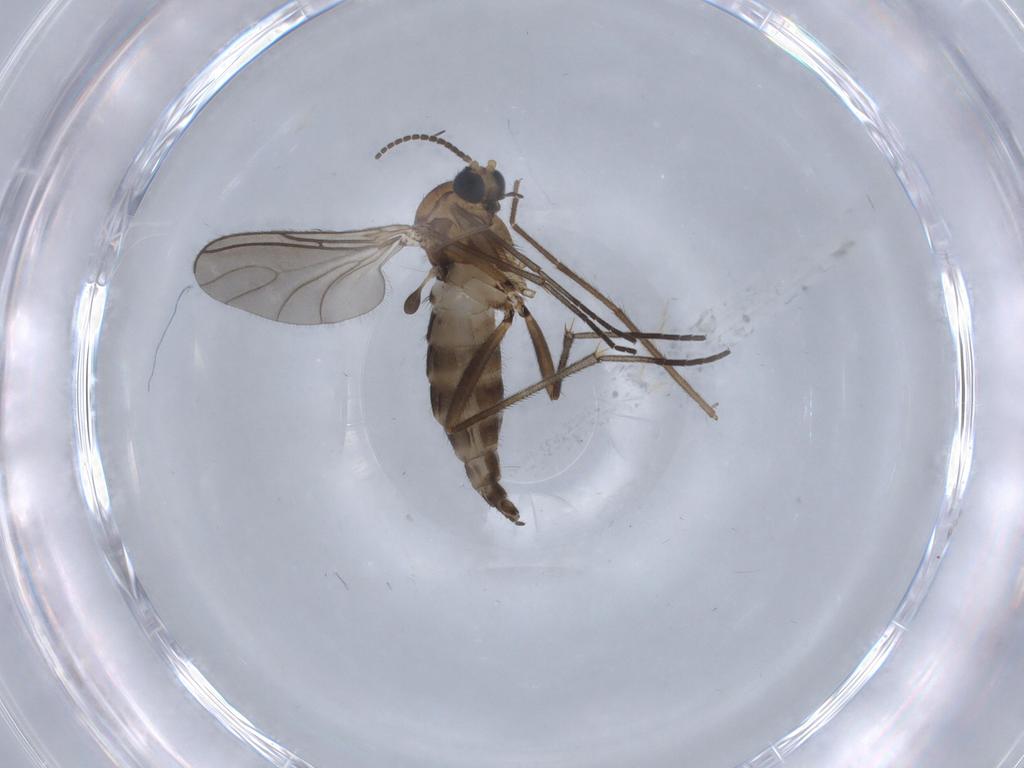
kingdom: Animalia
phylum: Arthropoda
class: Insecta
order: Diptera
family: Sciaridae
